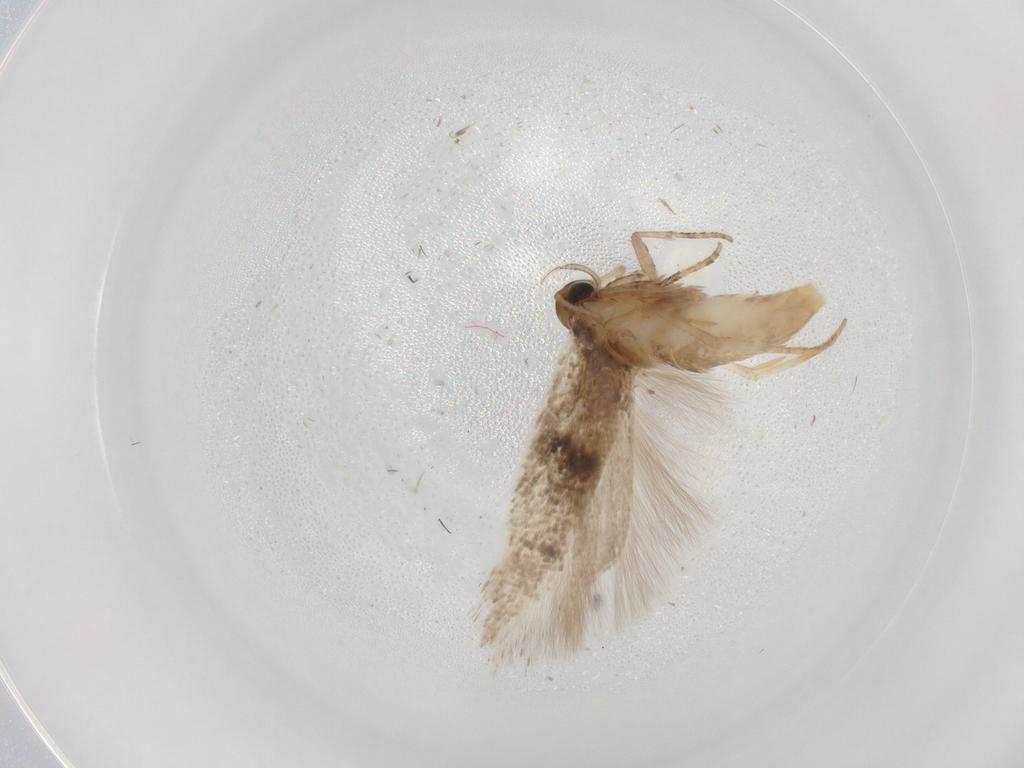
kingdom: Animalia
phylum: Arthropoda
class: Insecta
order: Lepidoptera
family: Gelechiidae
